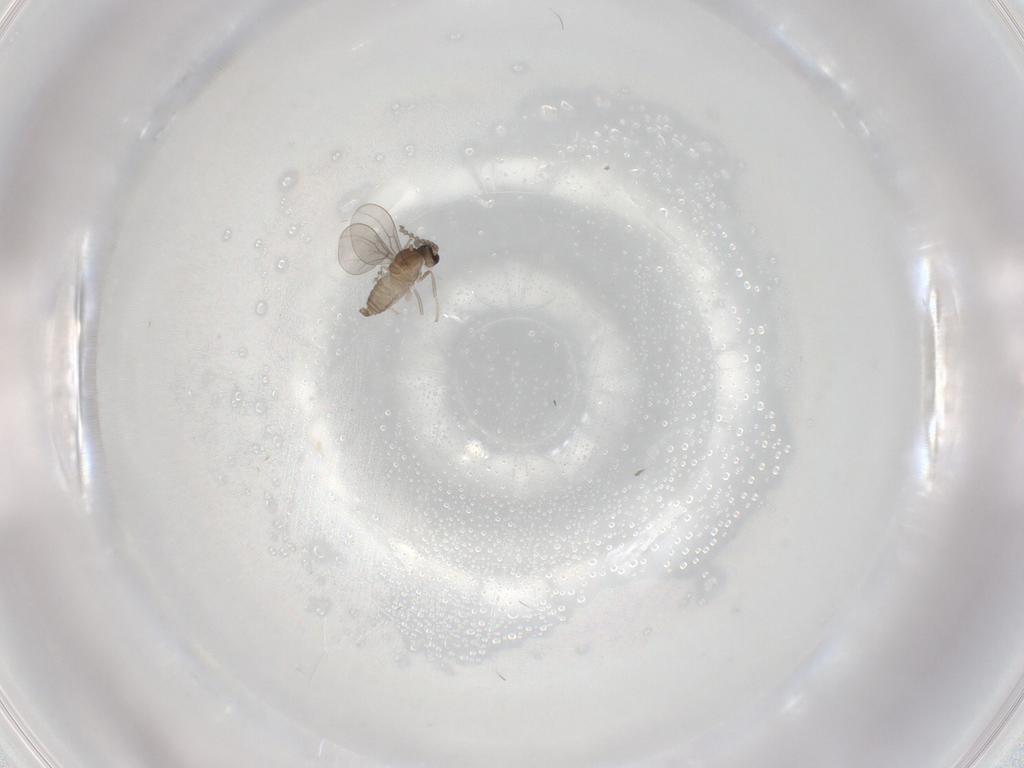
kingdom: Animalia
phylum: Arthropoda
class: Insecta
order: Diptera
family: Cecidomyiidae
